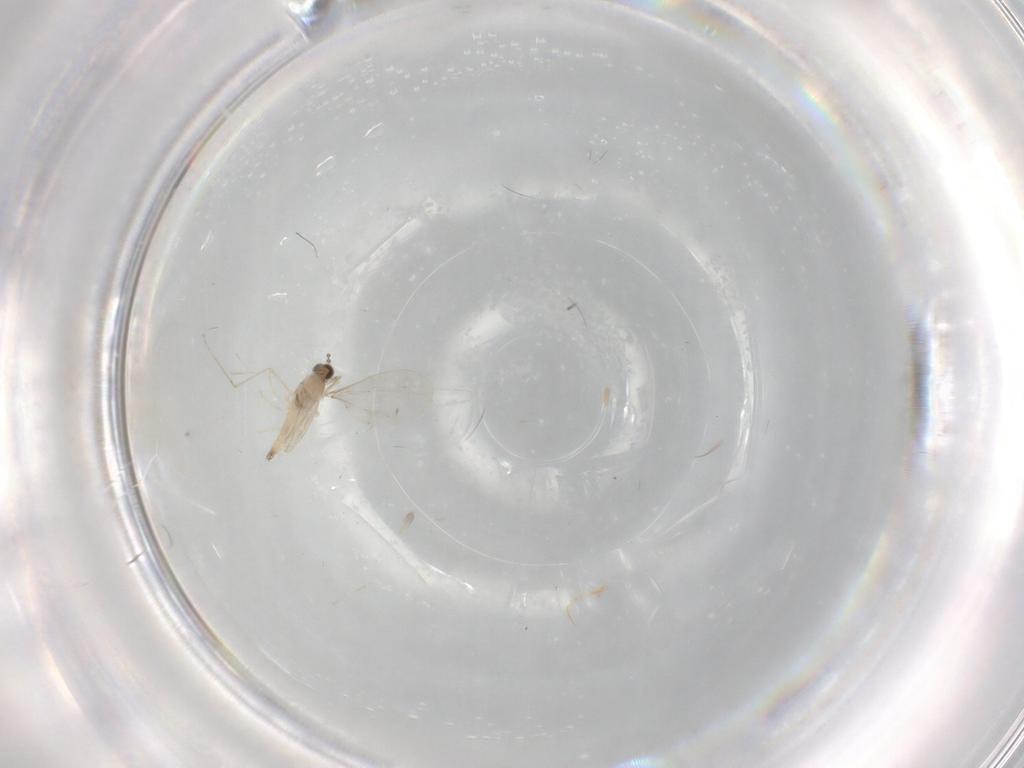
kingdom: Animalia
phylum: Arthropoda
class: Insecta
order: Diptera
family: Cecidomyiidae
